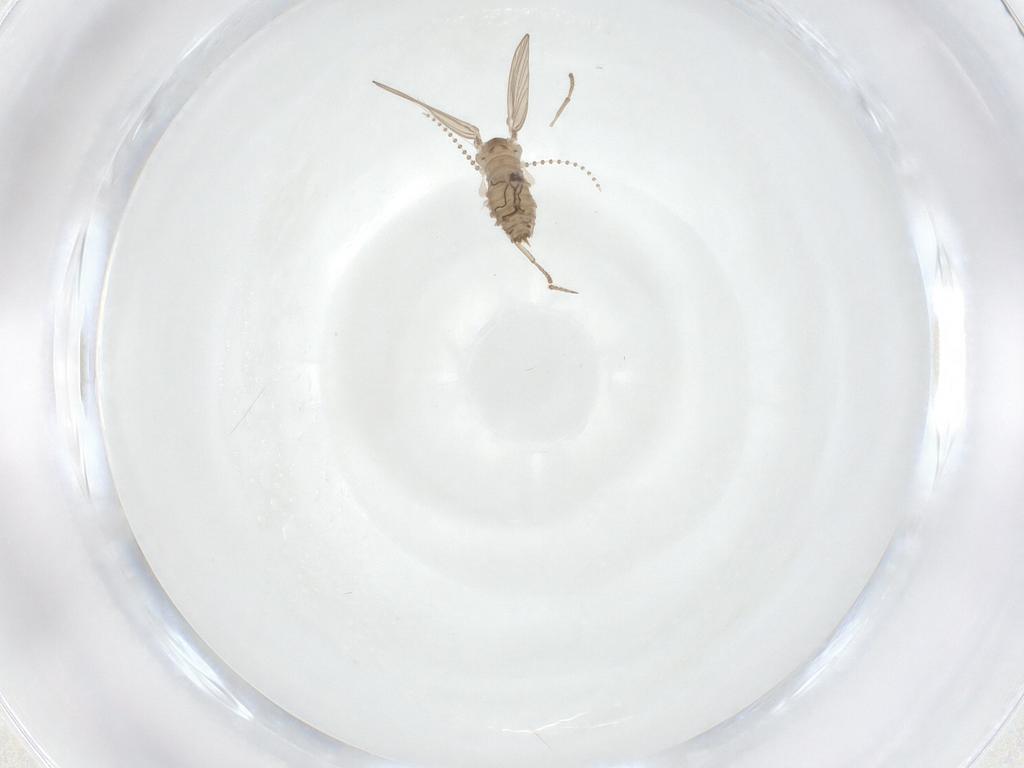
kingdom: Animalia
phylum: Arthropoda
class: Insecta
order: Diptera
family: Psychodidae
